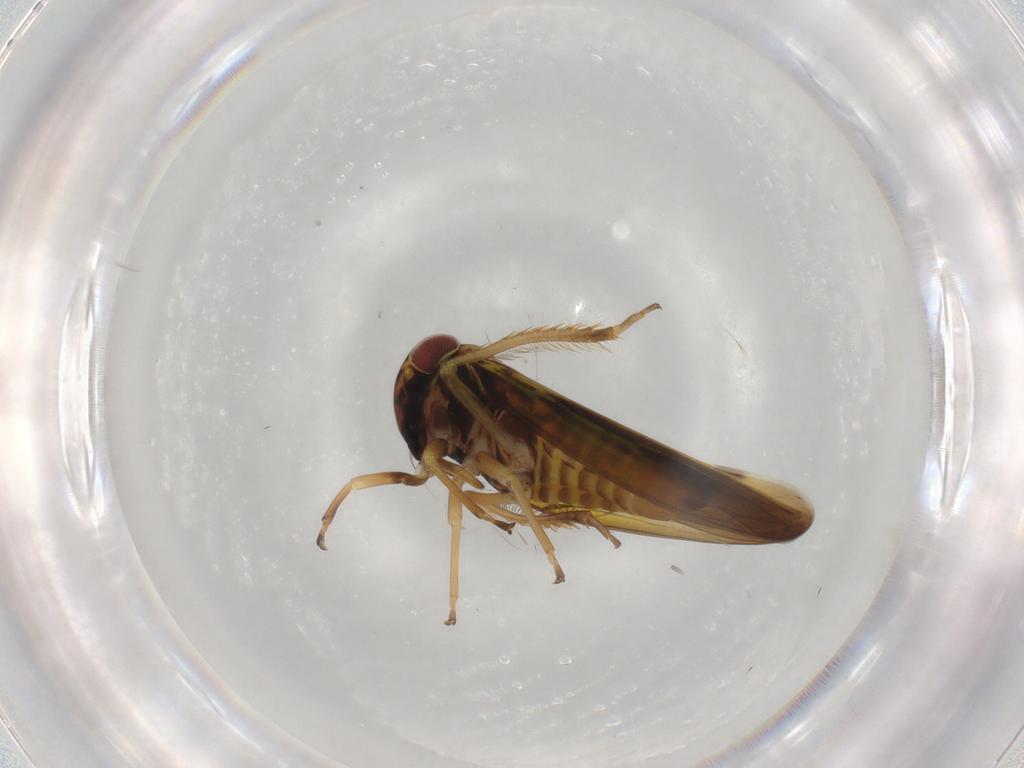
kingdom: Animalia
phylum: Arthropoda
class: Insecta
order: Hemiptera
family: Cicadellidae
